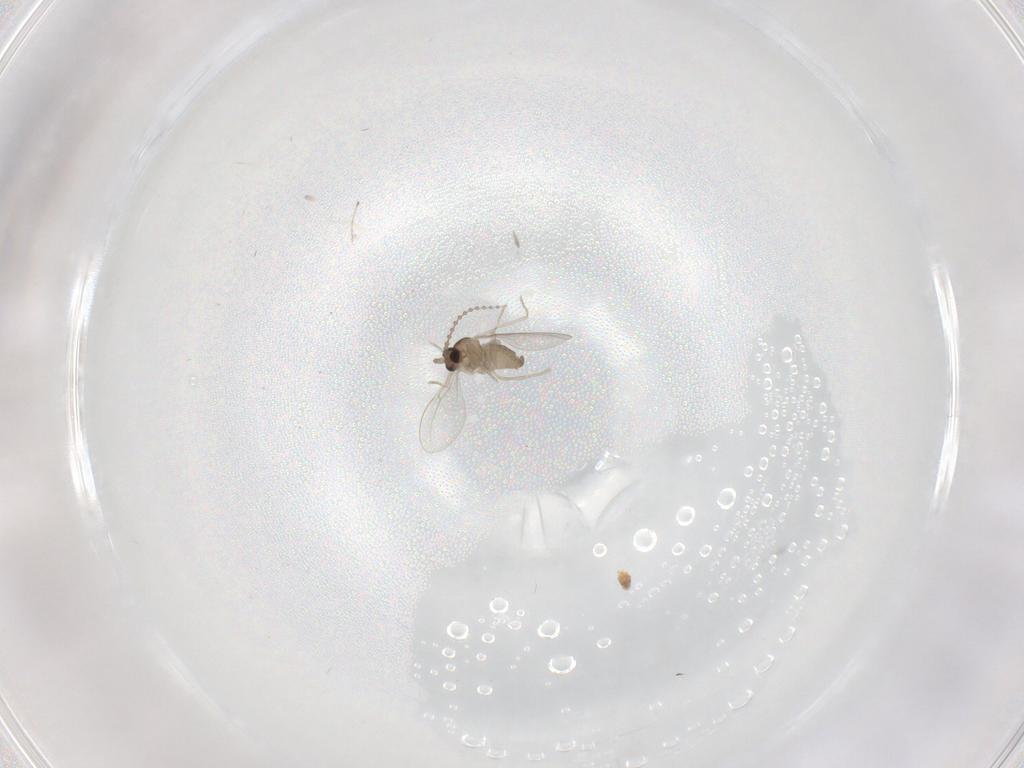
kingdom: Animalia
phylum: Arthropoda
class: Insecta
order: Diptera
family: Cecidomyiidae
